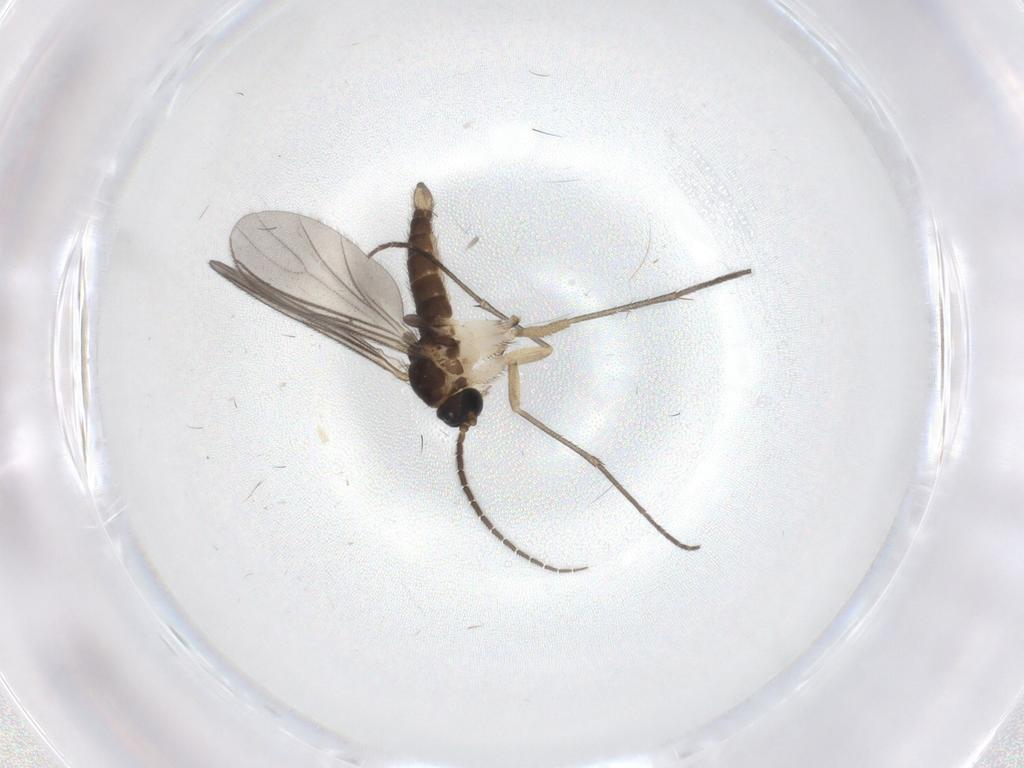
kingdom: Animalia
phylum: Arthropoda
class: Insecta
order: Diptera
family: Sciaridae
